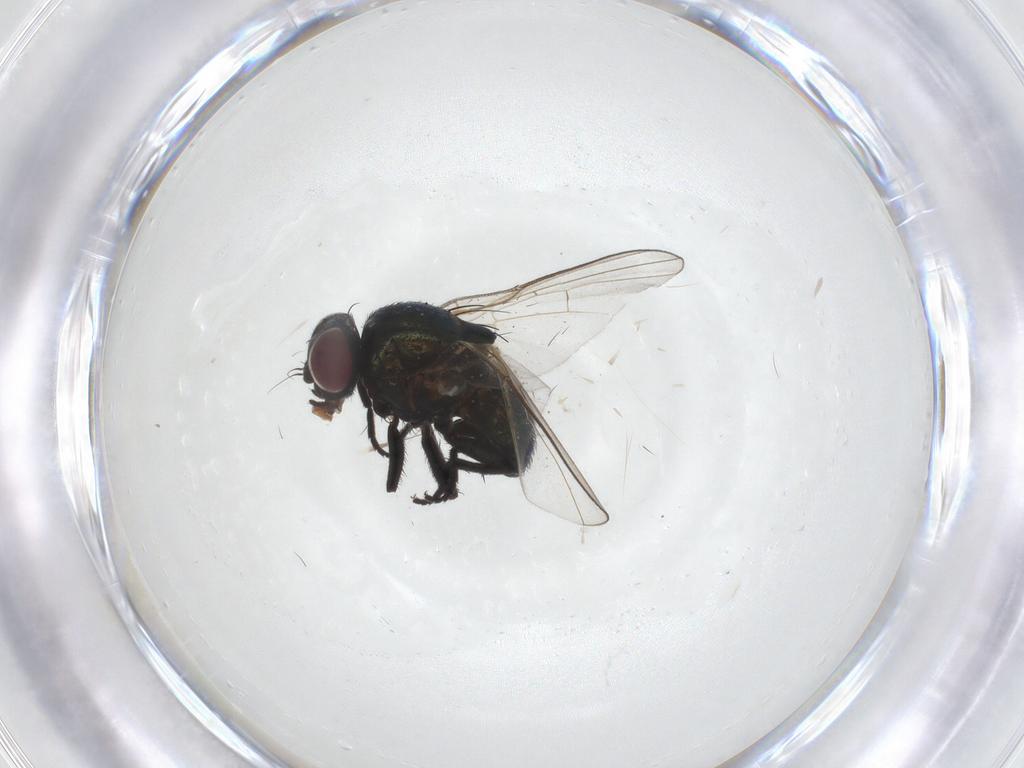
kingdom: Animalia
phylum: Arthropoda
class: Insecta
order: Diptera
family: Agromyzidae
